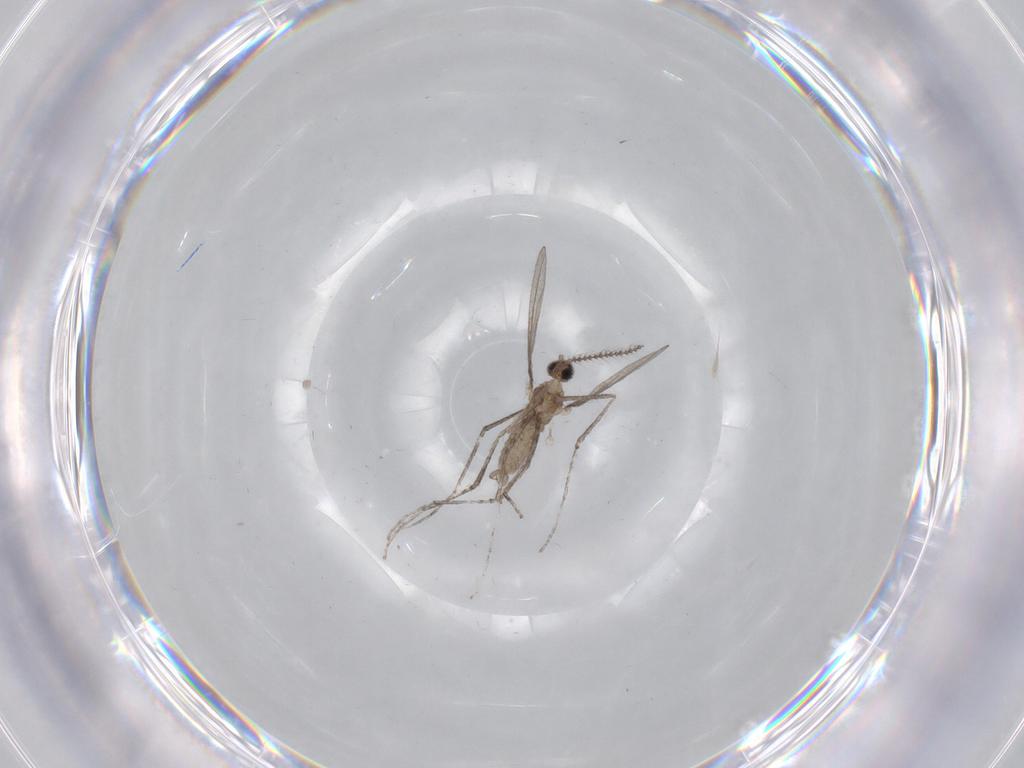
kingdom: Animalia
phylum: Arthropoda
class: Insecta
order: Diptera
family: Cecidomyiidae
